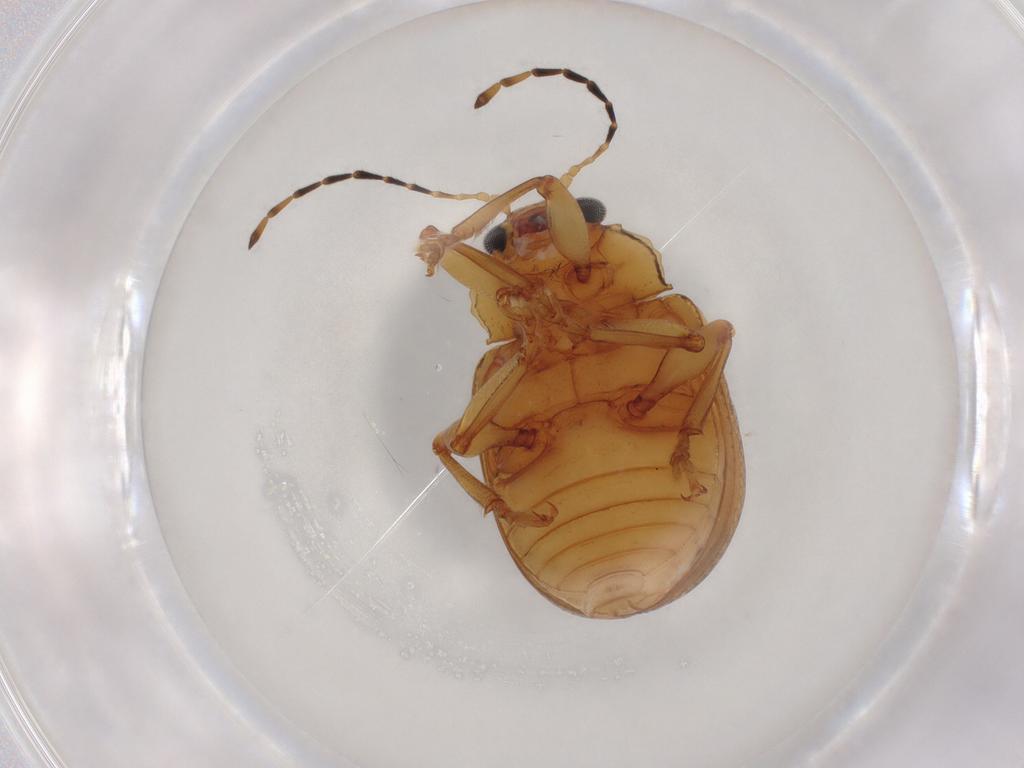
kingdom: Animalia
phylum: Arthropoda
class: Insecta
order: Coleoptera
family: Chrysomelidae
